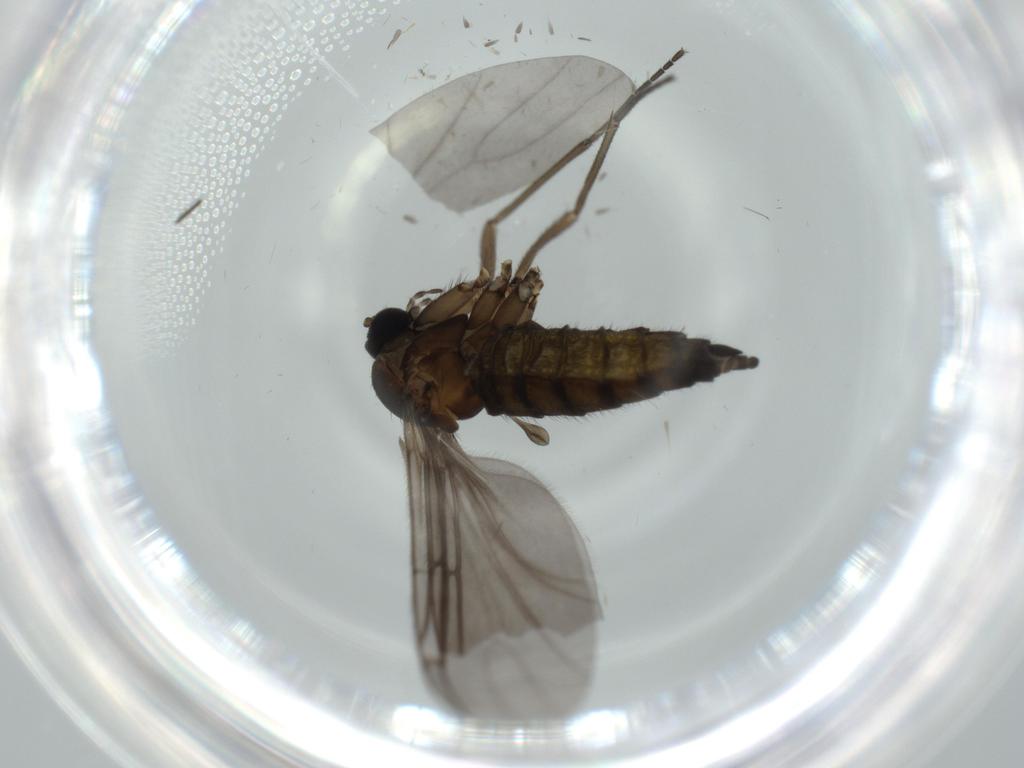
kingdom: Animalia
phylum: Arthropoda
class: Insecta
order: Diptera
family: Sciaridae
